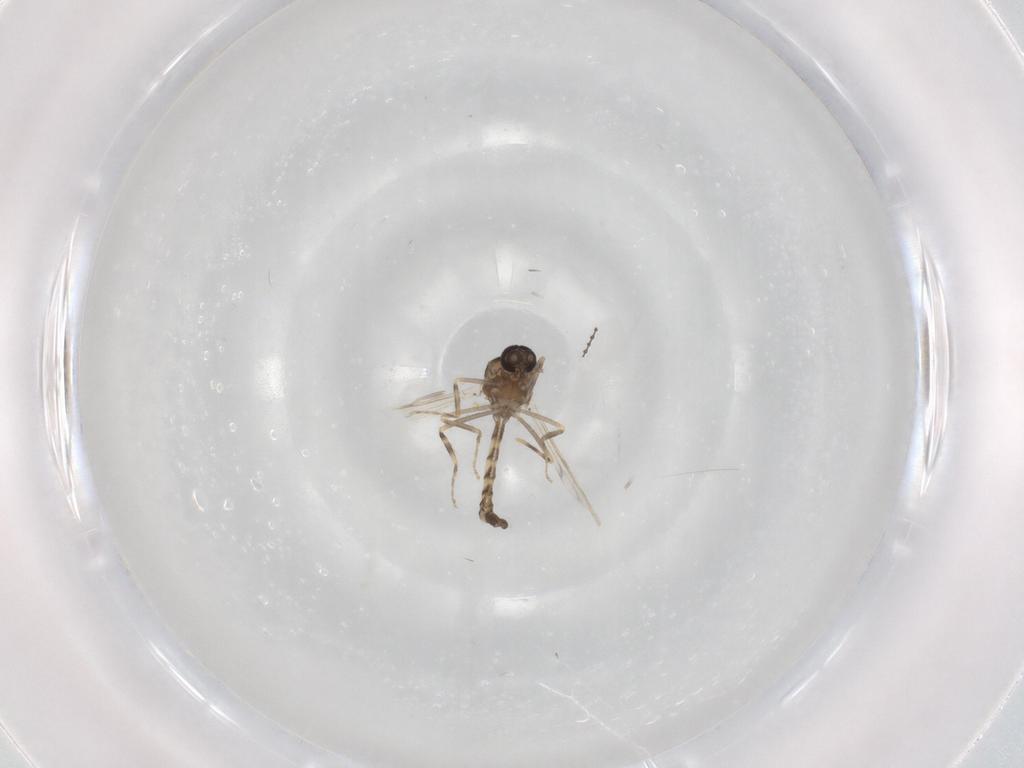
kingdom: Animalia
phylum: Arthropoda
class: Insecta
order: Diptera
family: Ceratopogonidae
